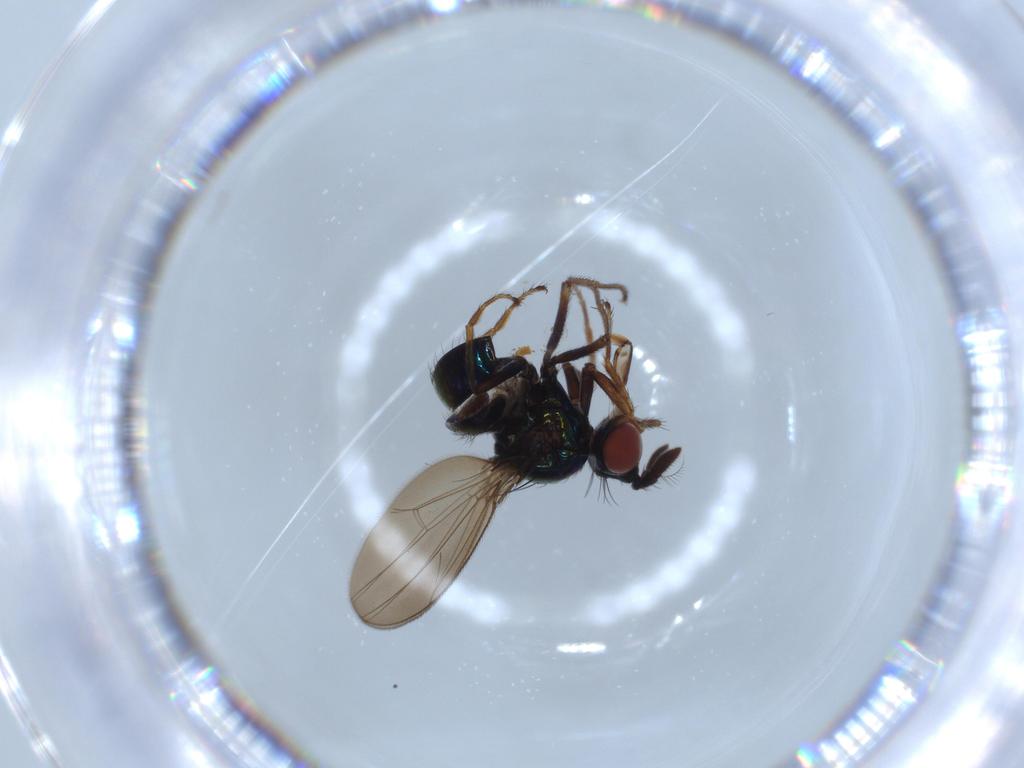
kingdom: Animalia
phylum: Arthropoda
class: Insecta
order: Diptera
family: Ephydridae
